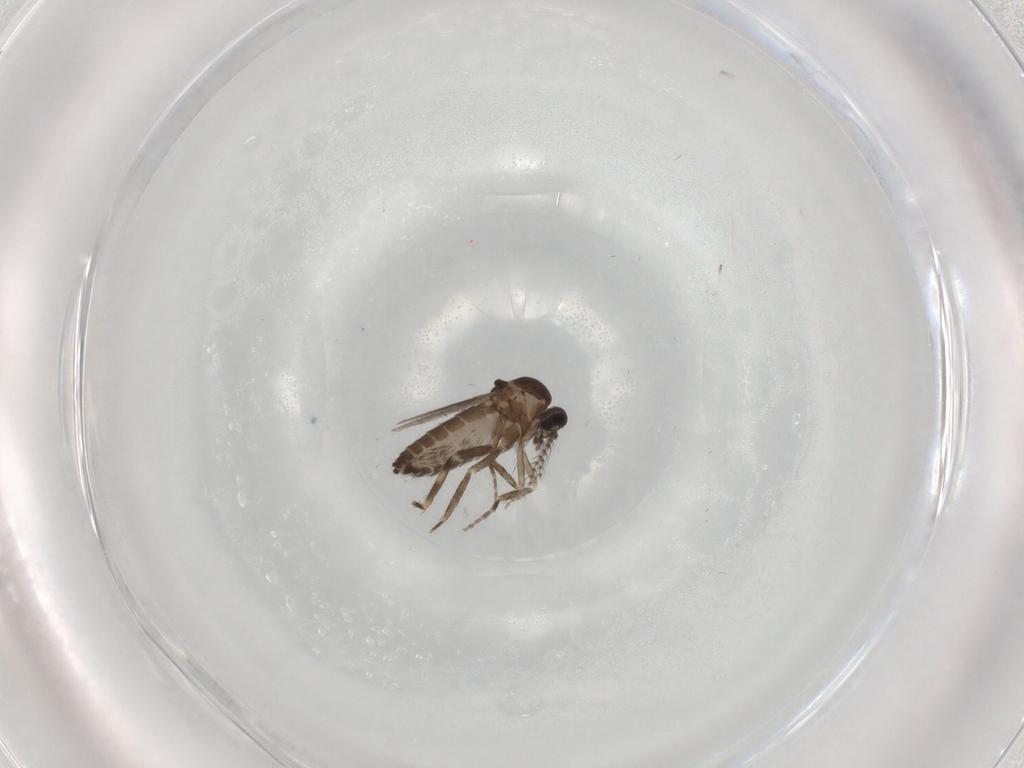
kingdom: Animalia
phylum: Arthropoda
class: Insecta
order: Diptera
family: Ceratopogonidae
